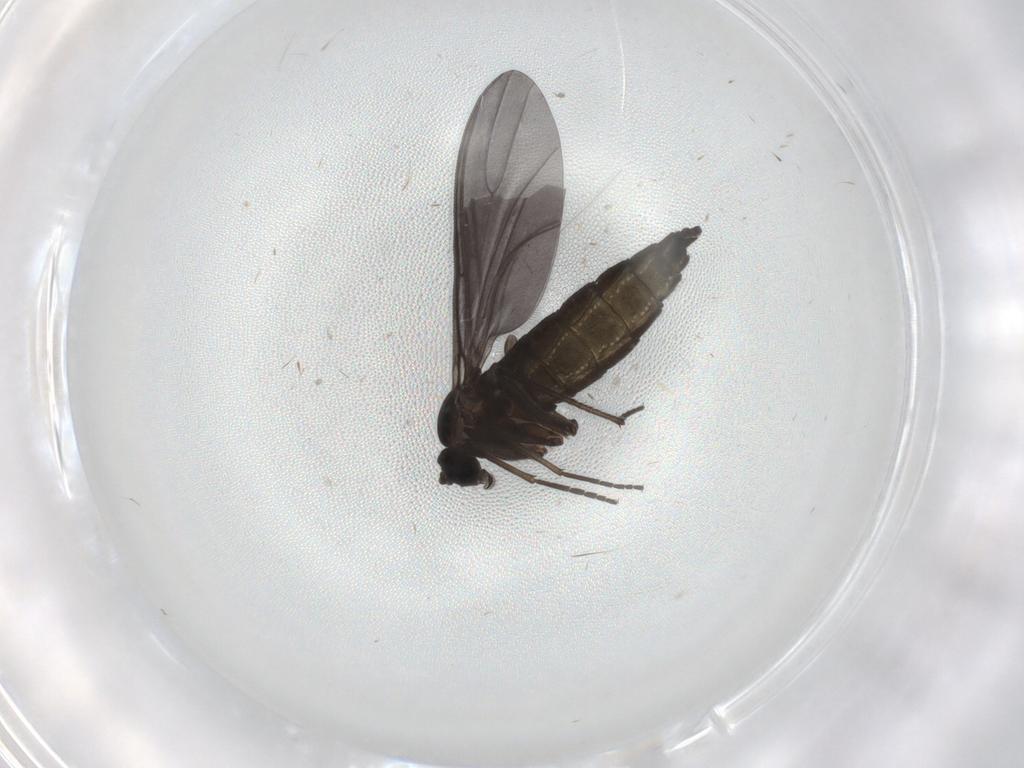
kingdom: Animalia
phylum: Arthropoda
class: Insecta
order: Diptera
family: Sciaridae
